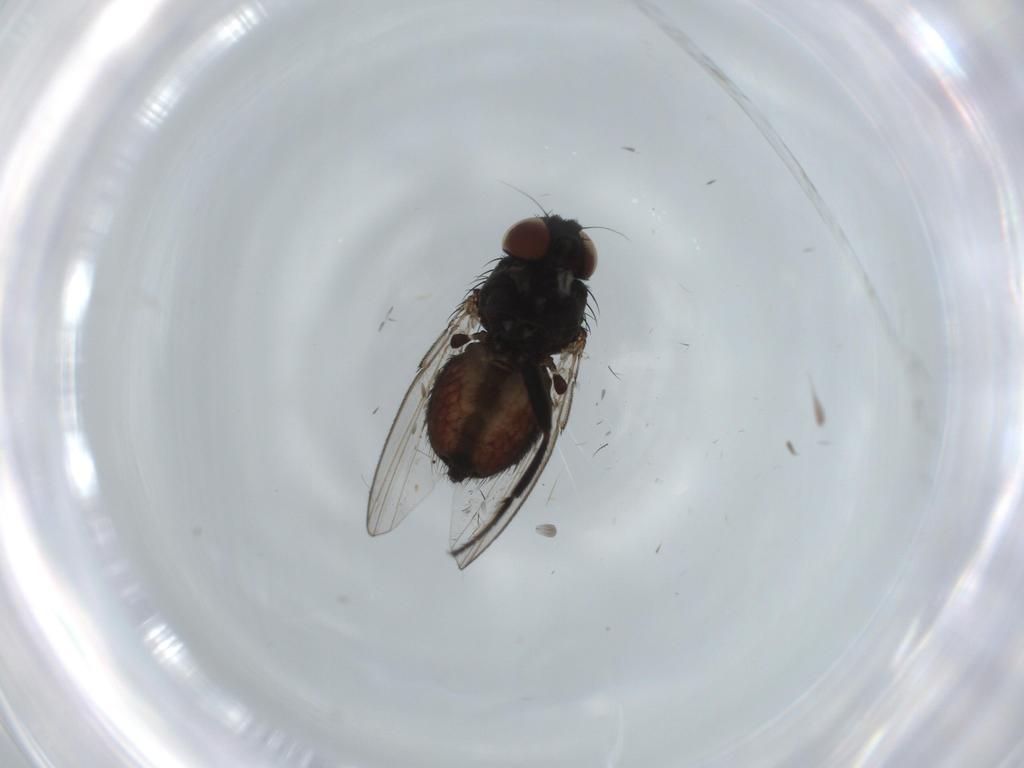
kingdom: Animalia
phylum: Arthropoda
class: Insecta
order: Diptera
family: Milichiidae
